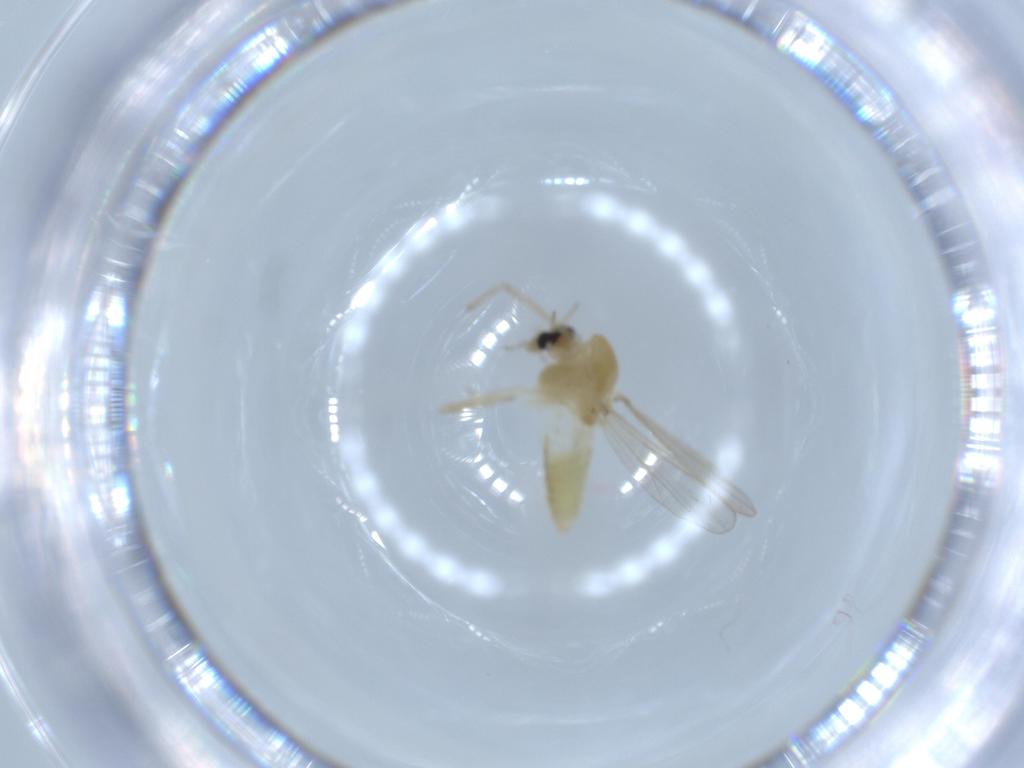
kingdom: Animalia
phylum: Arthropoda
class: Insecta
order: Diptera
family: Chironomidae
